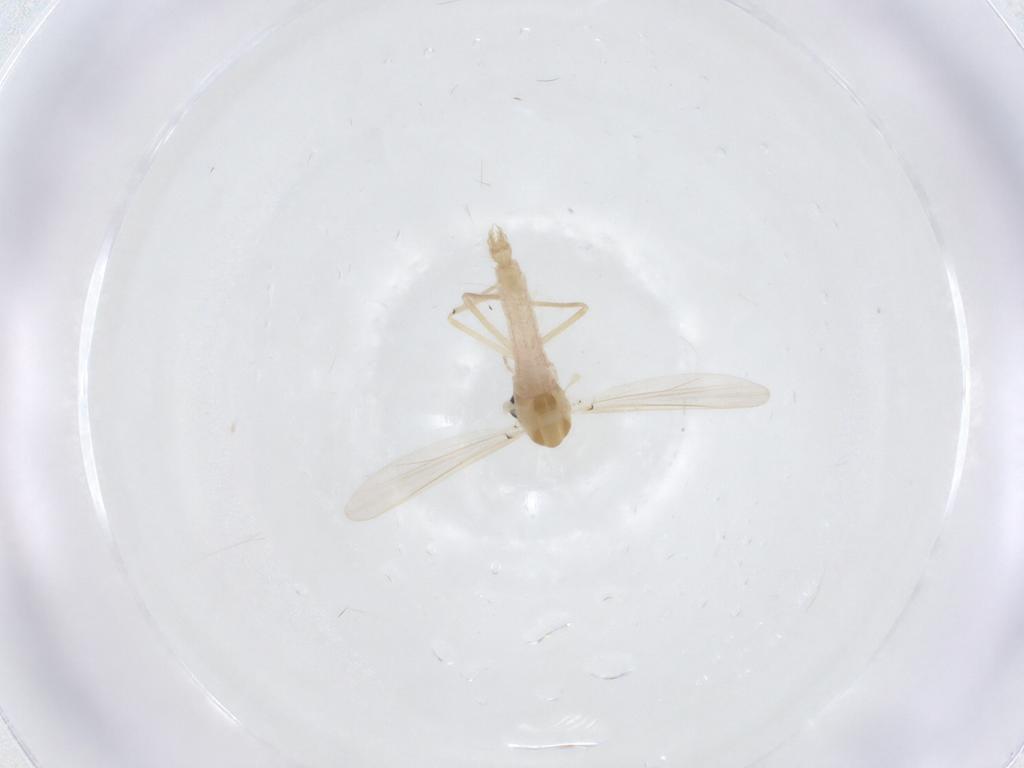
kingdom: Animalia
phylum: Arthropoda
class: Insecta
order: Diptera
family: Chironomidae
